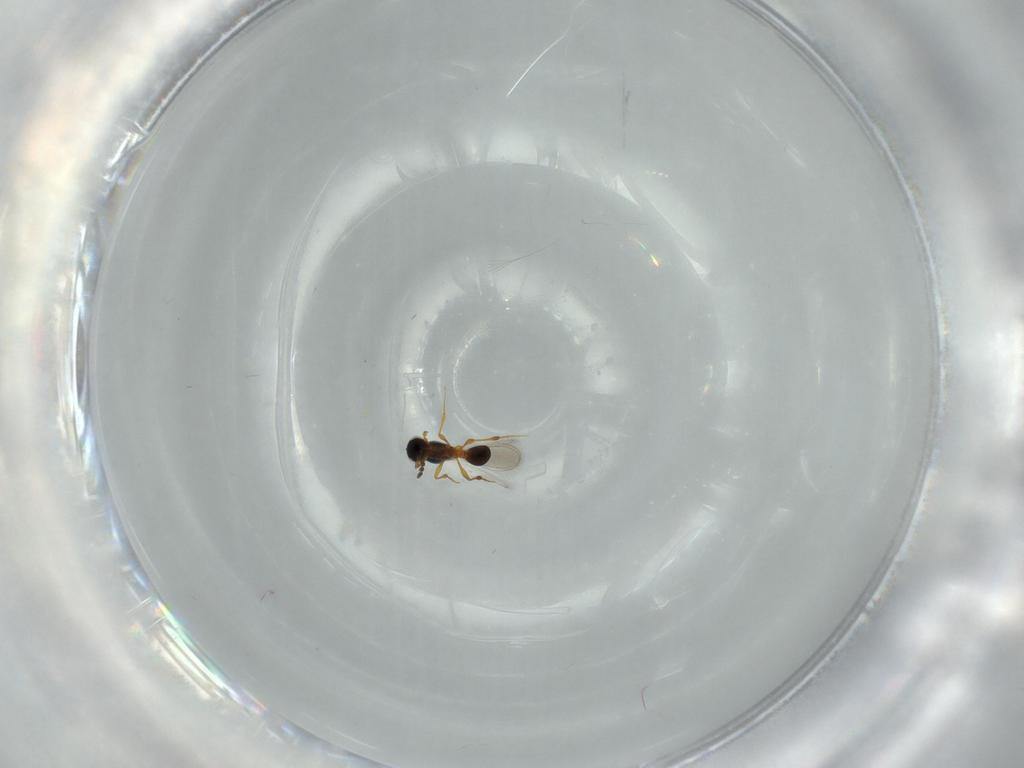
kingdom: Animalia
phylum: Arthropoda
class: Insecta
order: Hymenoptera
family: Platygastridae
